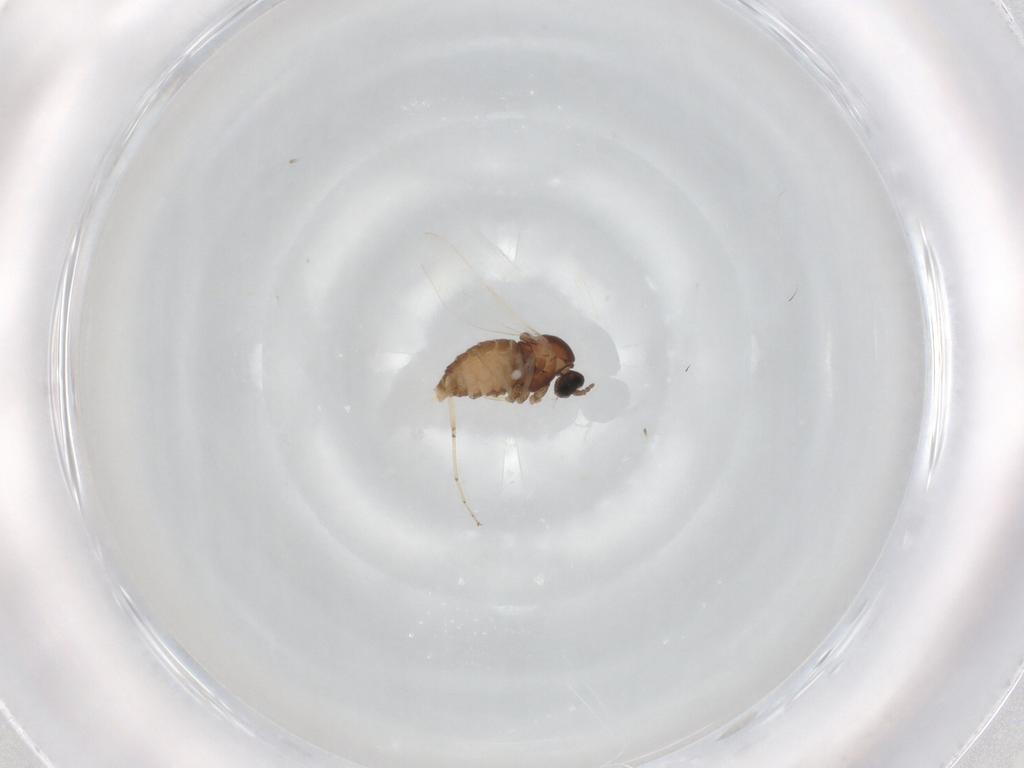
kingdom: Animalia
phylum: Arthropoda
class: Insecta
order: Diptera
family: Cecidomyiidae
